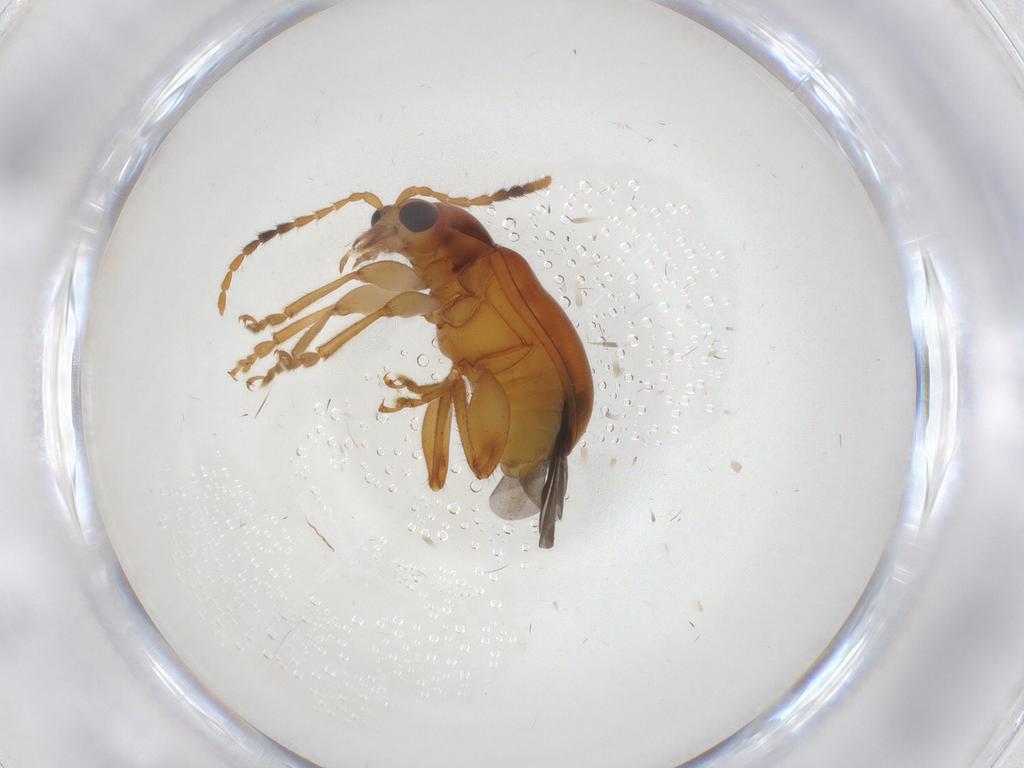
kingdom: Animalia
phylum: Arthropoda
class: Insecta
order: Coleoptera
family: Chrysomelidae
